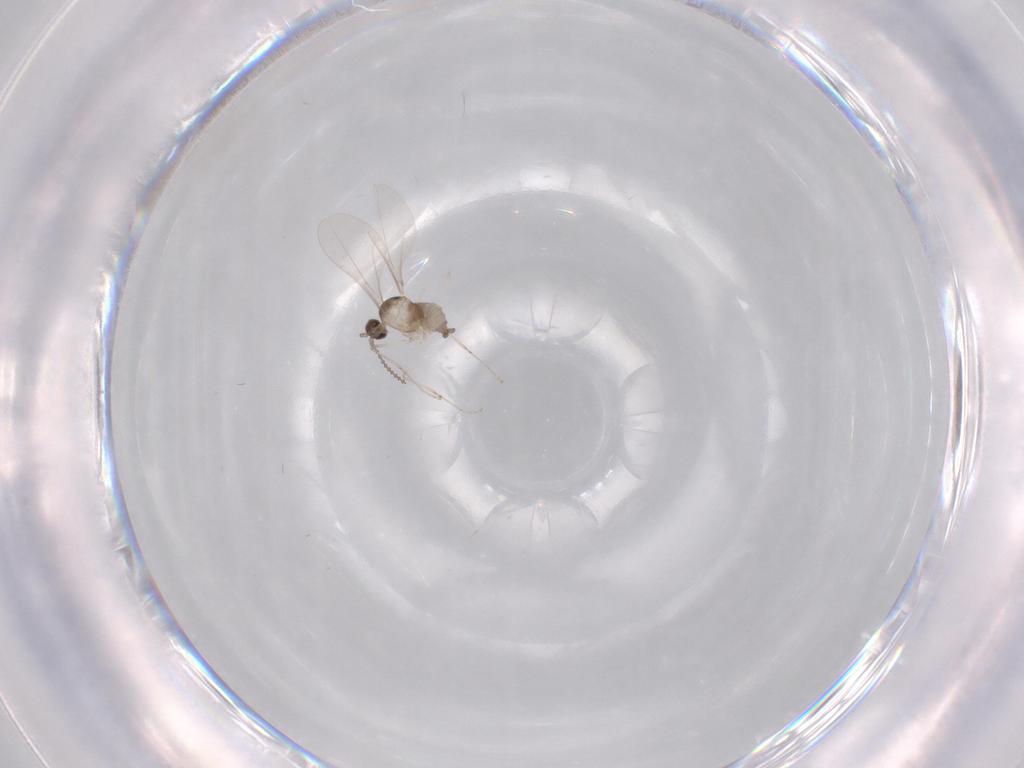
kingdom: Animalia
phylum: Arthropoda
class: Insecta
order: Diptera
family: Cecidomyiidae
